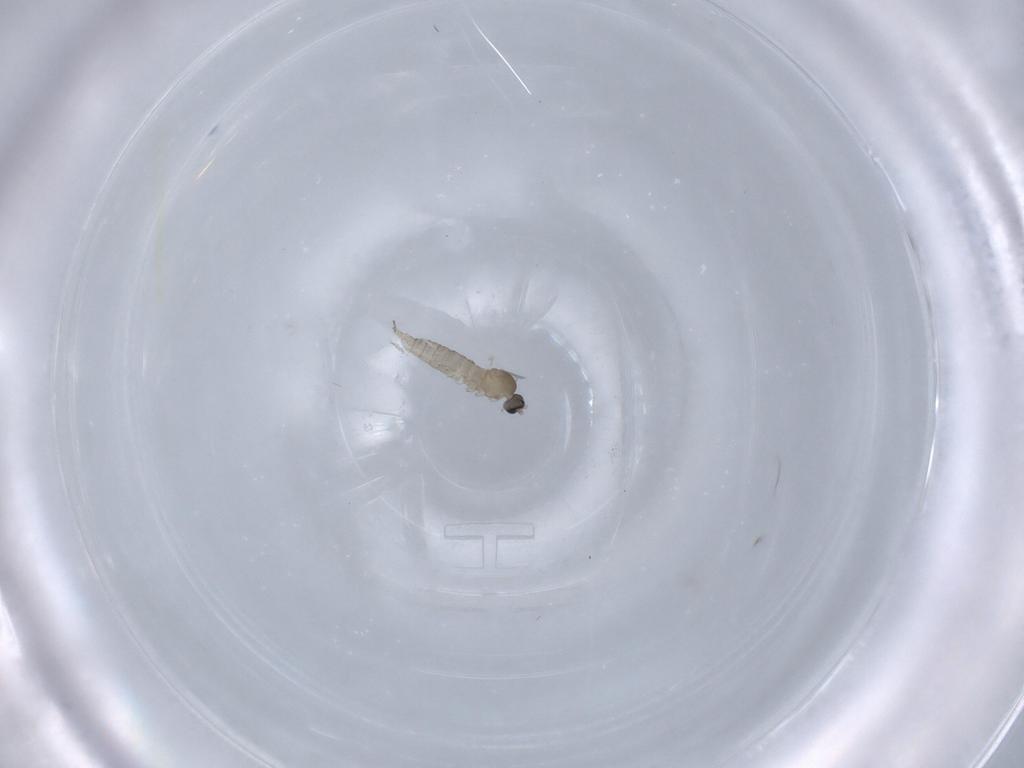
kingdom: Animalia
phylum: Arthropoda
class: Insecta
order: Diptera
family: Cecidomyiidae
